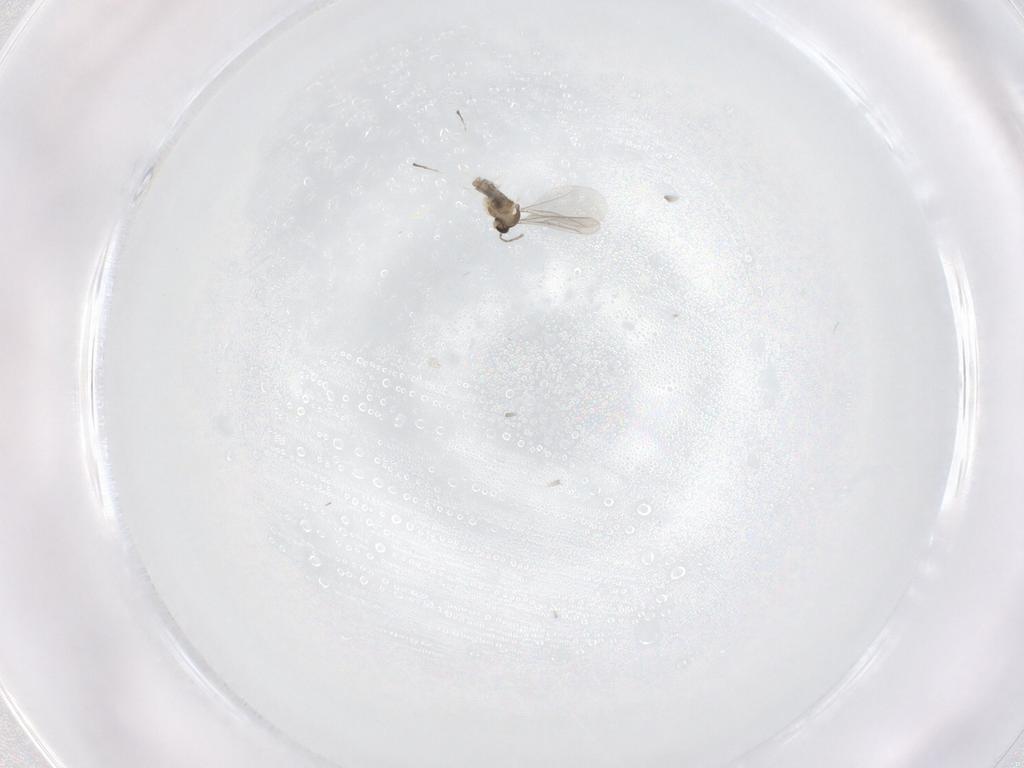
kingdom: Animalia
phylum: Arthropoda
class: Insecta
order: Diptera
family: Cecidomyiidae
